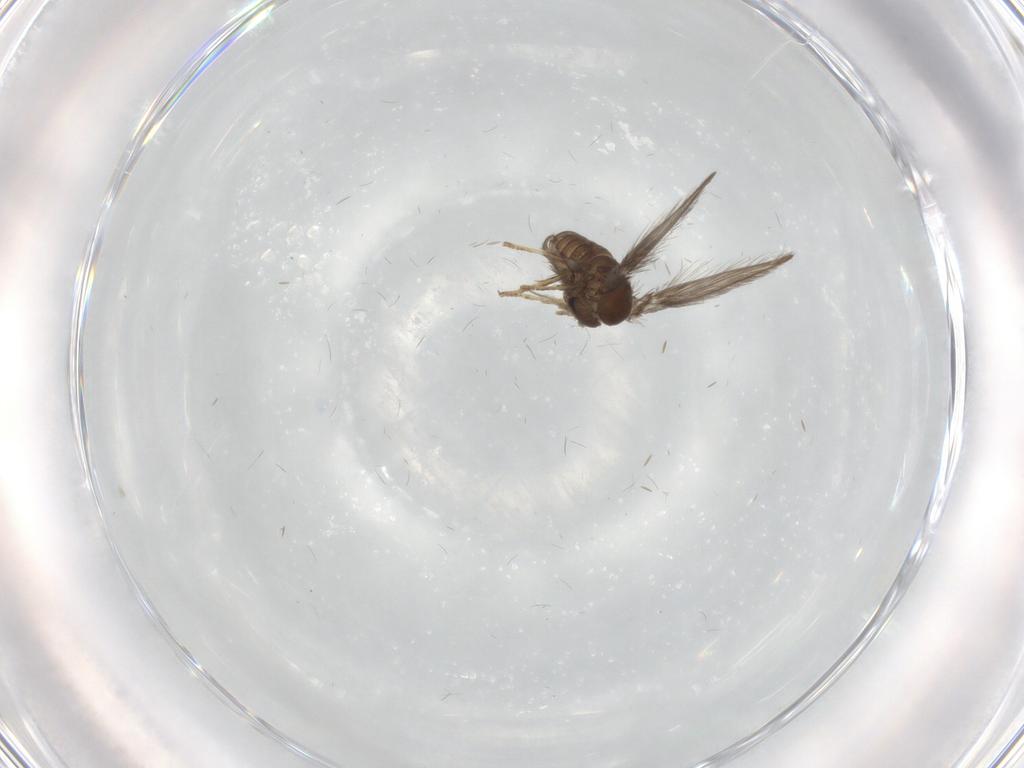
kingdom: Animalia
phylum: Arthropoda
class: Insecta
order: Diptera
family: Psychodidae
